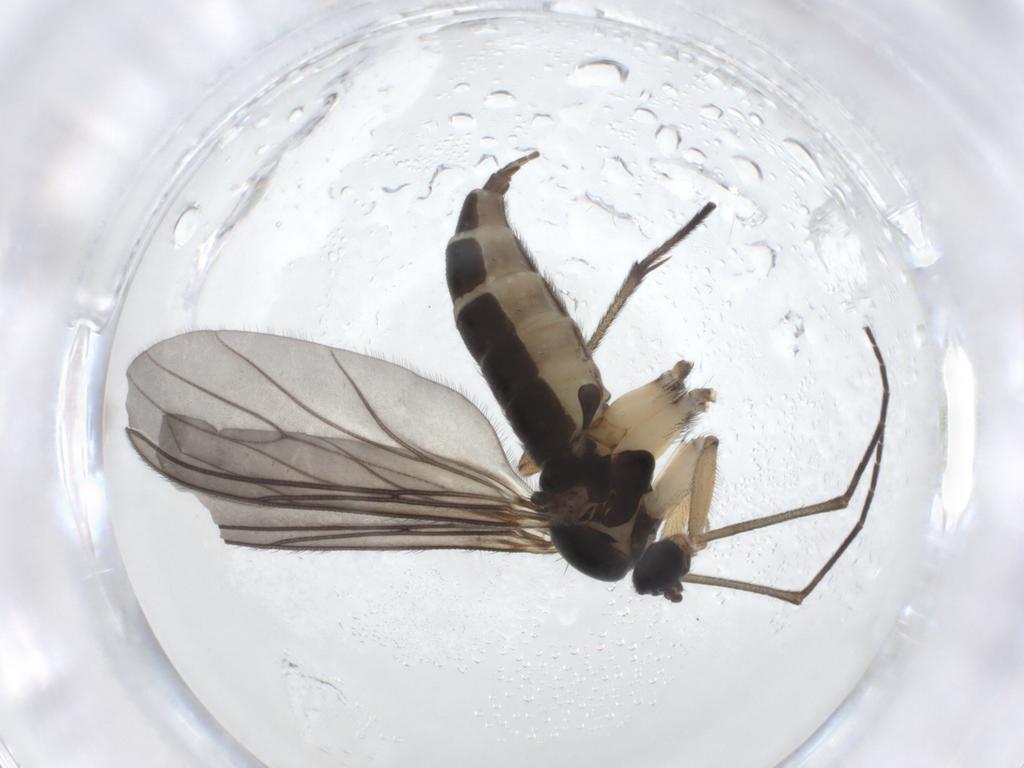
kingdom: Animalia
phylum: Arthropoda
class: Insecta
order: Diptera
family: Sciaridae
